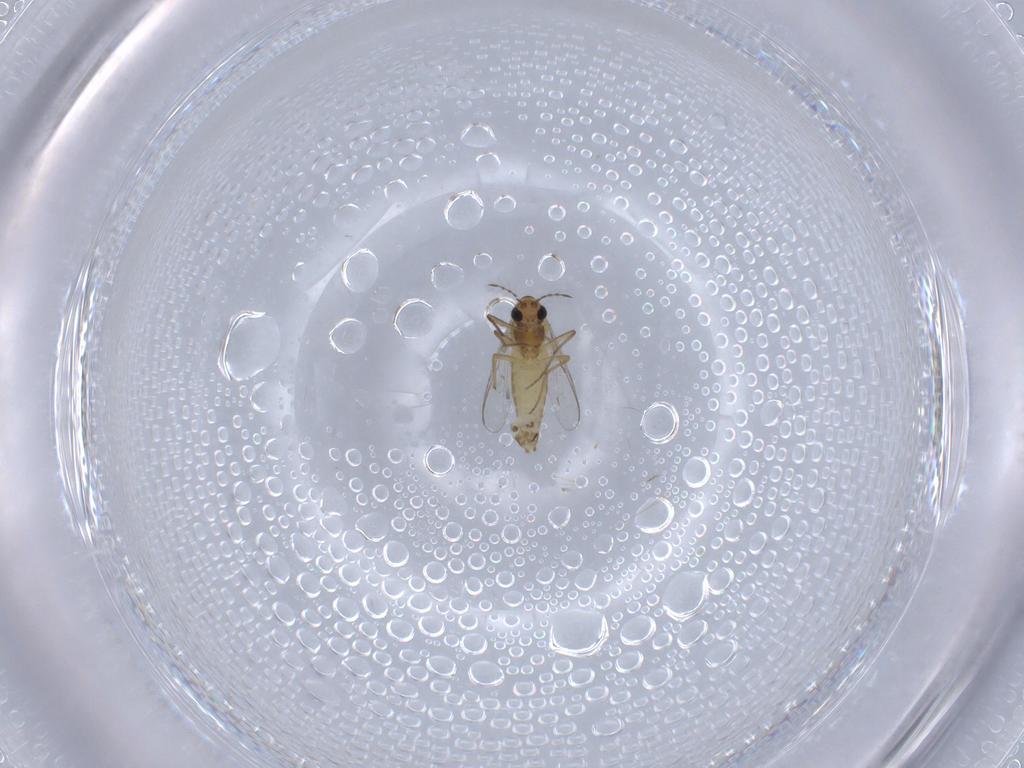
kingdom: Animalia
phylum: Arthropoda
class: Insecta
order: Diptera
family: Chironomidae
